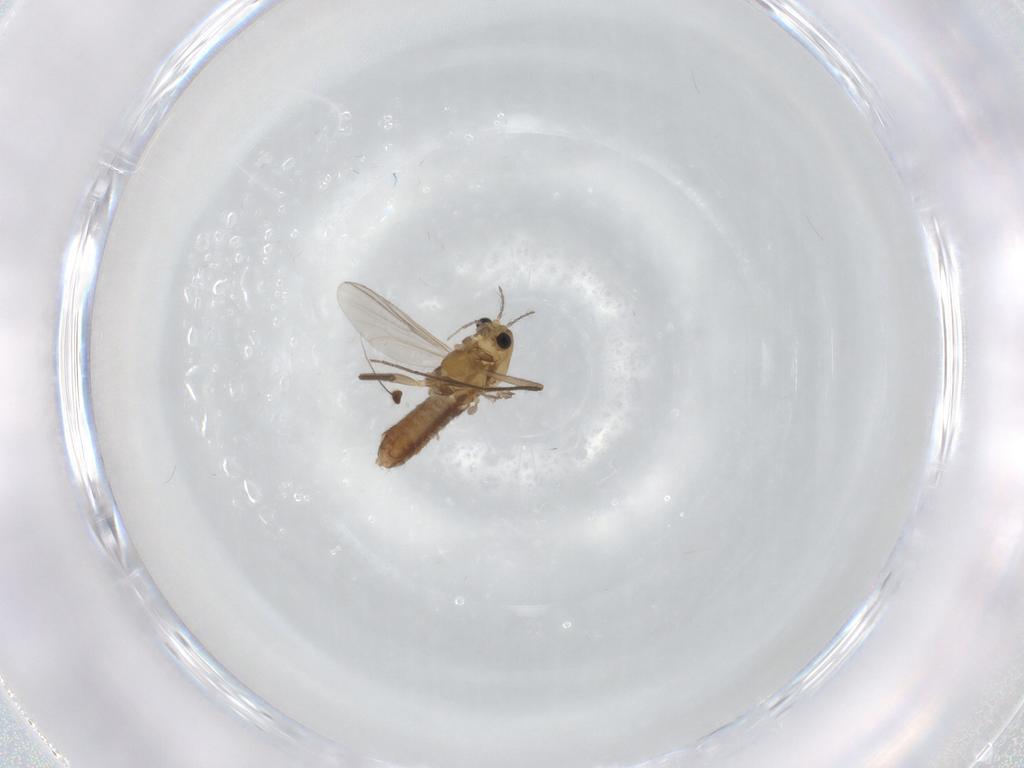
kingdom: Animalia
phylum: Arthropoda
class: Insecta
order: Diptera
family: Chironomidae
